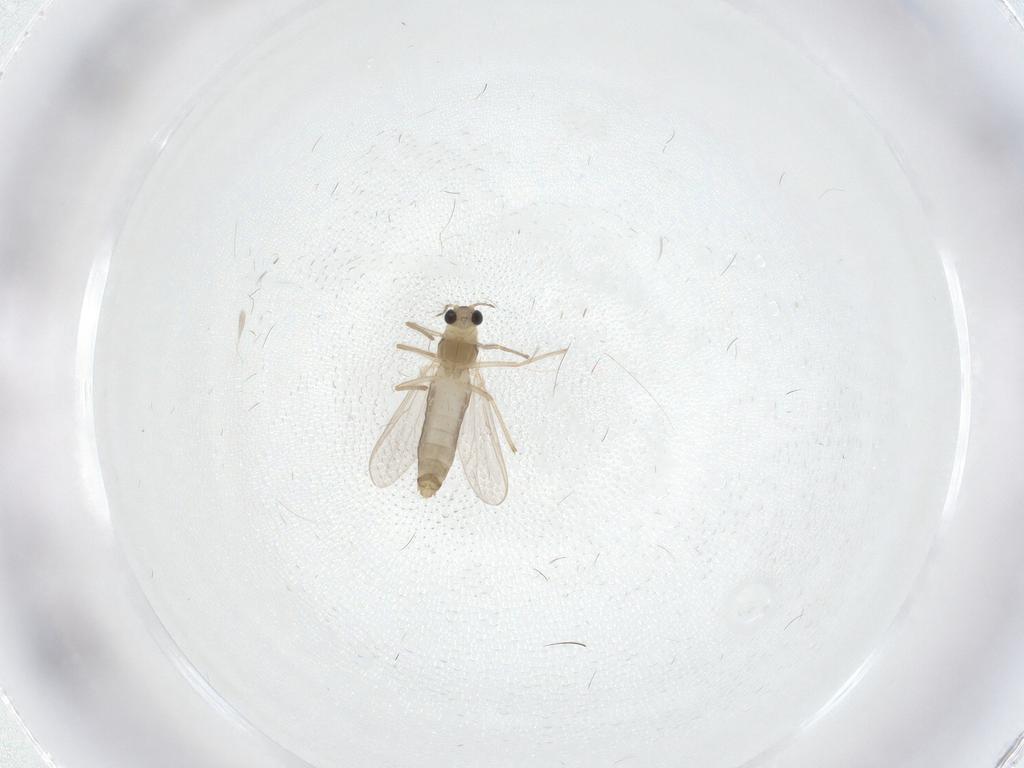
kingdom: Animalia
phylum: Arthropoda
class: Insecta
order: Diptera
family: Chironomidae
